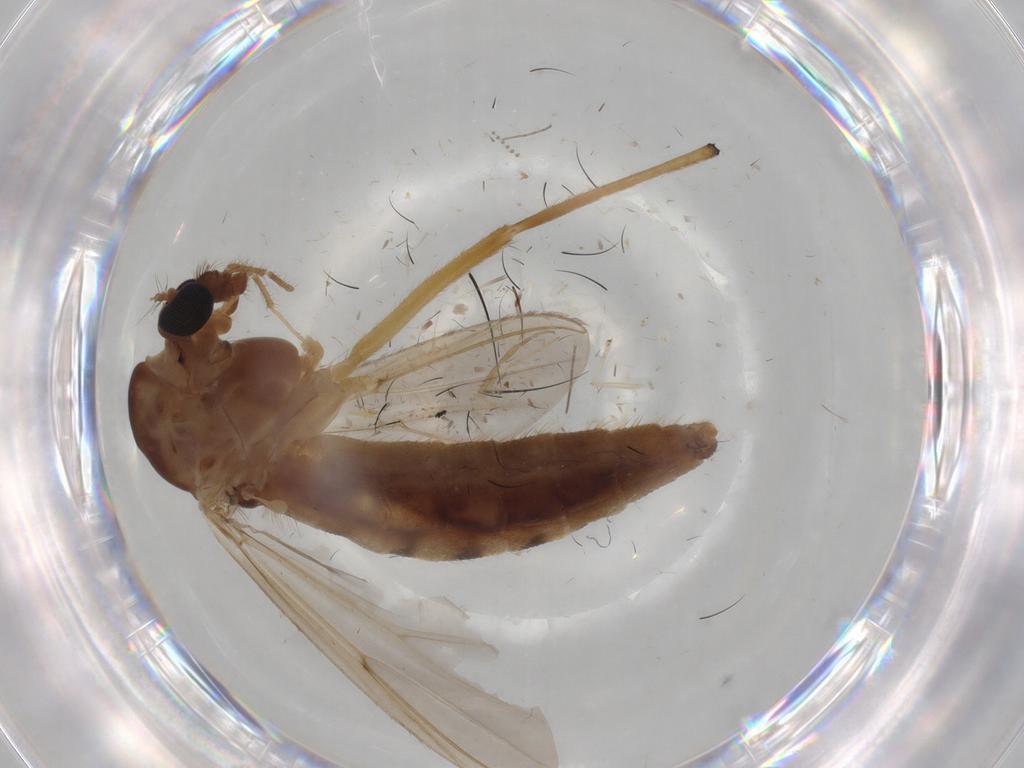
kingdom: Animalia
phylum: Arthropoda
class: Insecta
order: Diptera
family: Ceratopogonidae
